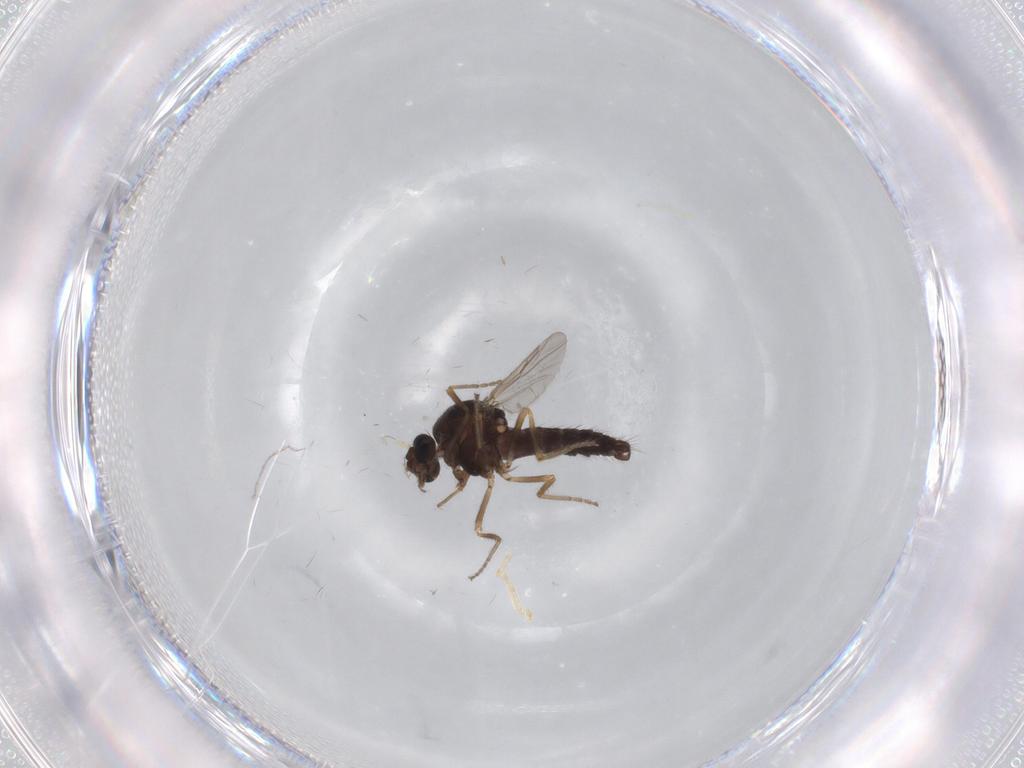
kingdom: Animalia
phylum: Arthropoda
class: Insecta
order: Diptera
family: Ceratopogonidae
